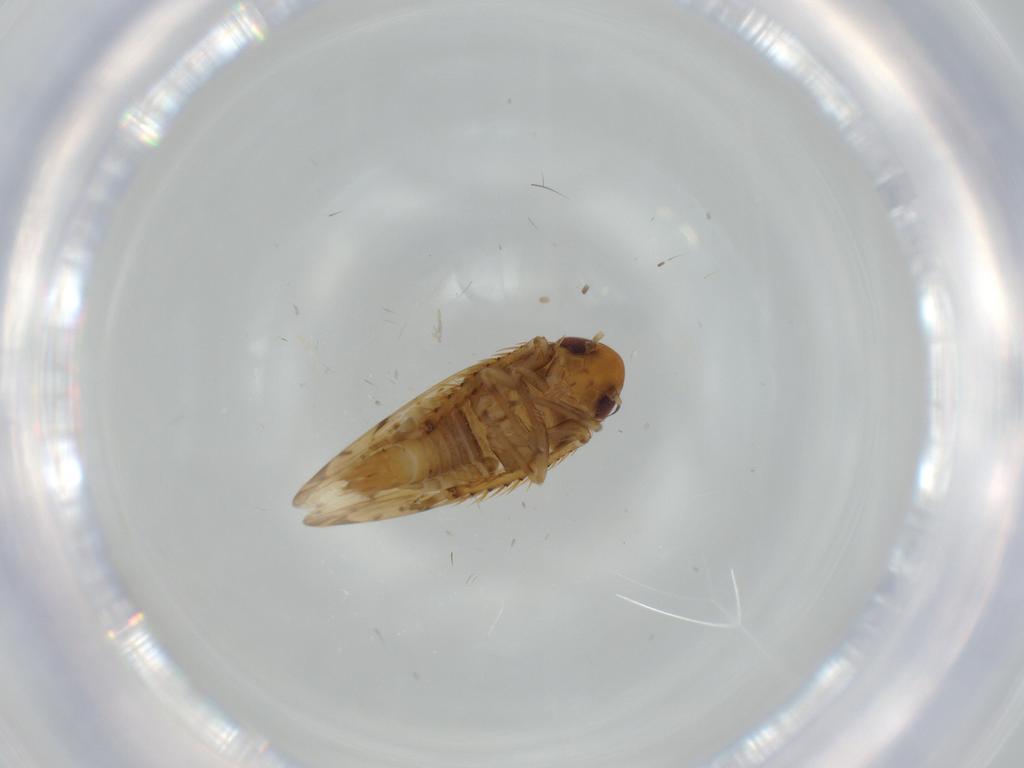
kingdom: Animalia
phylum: Arthropoda
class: Insecta
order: Hemiptera
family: Cicadellidae
